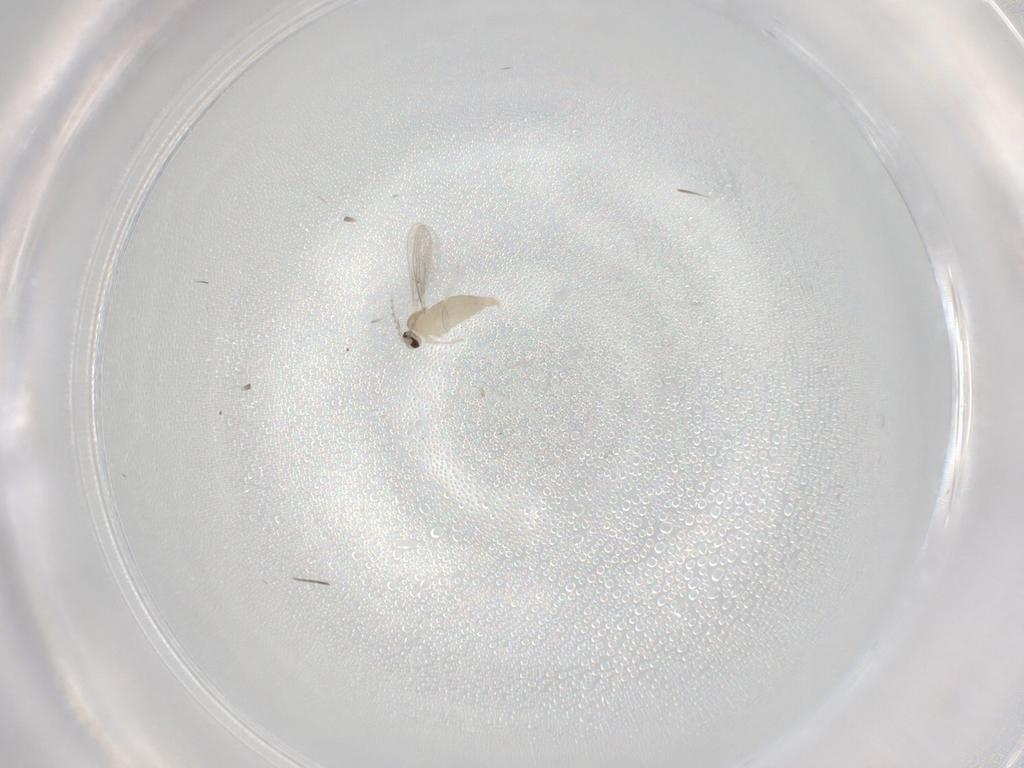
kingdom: Animalia
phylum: Arthropoda
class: Insecta
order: Diptera
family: Cecidomyiidae
